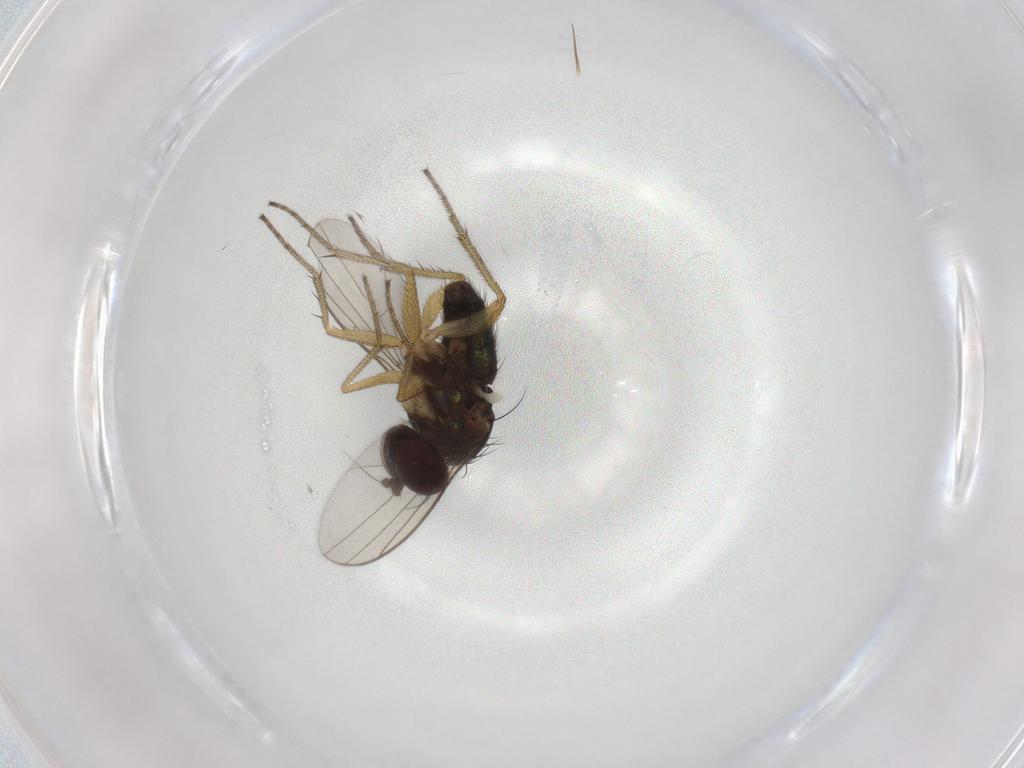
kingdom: Animalia
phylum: Arthropoda
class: Insecta
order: Diptera
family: Dolichopodidae
